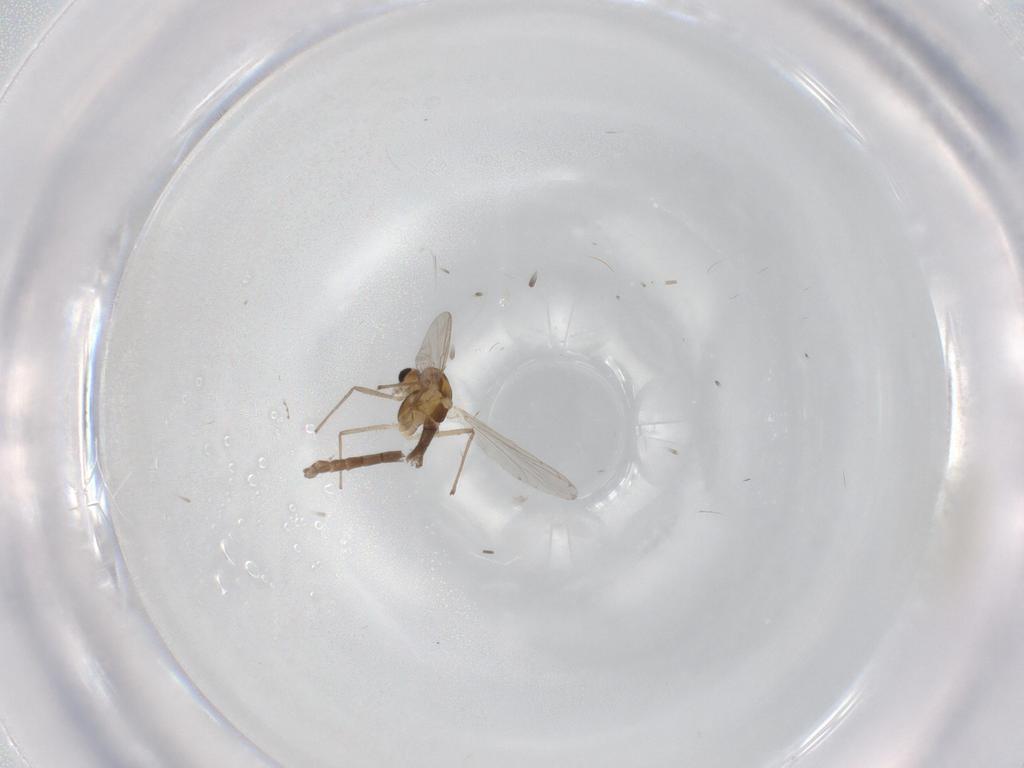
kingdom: Animalia
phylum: Arthropoda
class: Insecta
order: Diptera
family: Chironomidae
